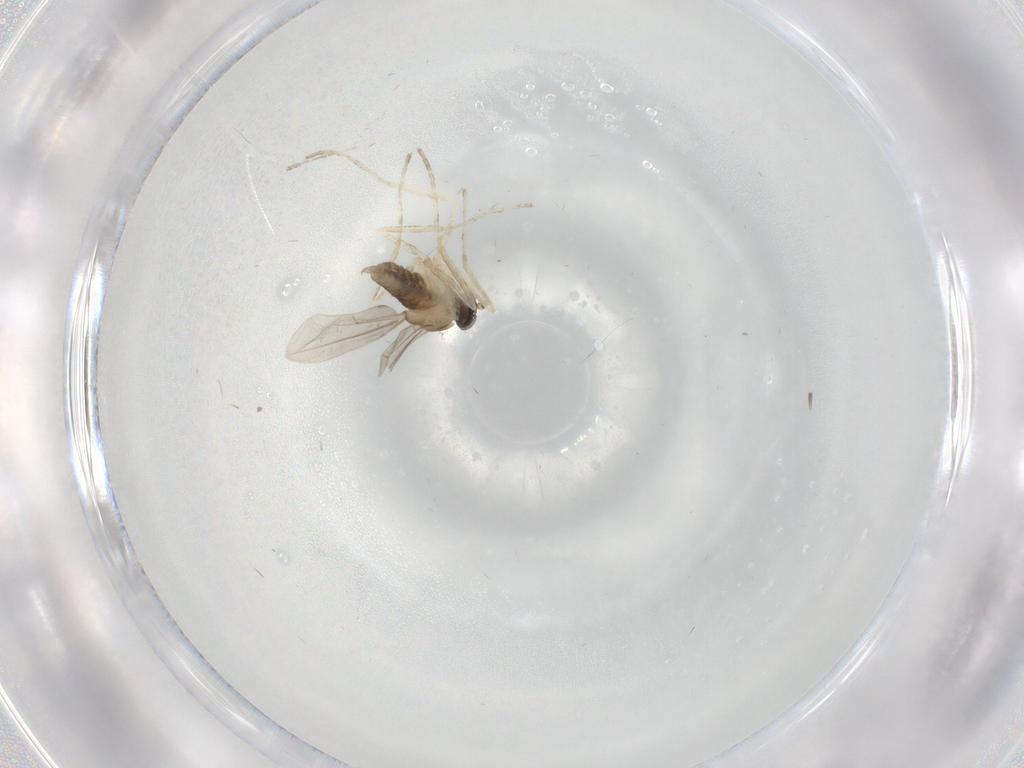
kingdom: Animalia
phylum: Arthropoda
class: Insecta
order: Diptera
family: Cecidomyiidae
